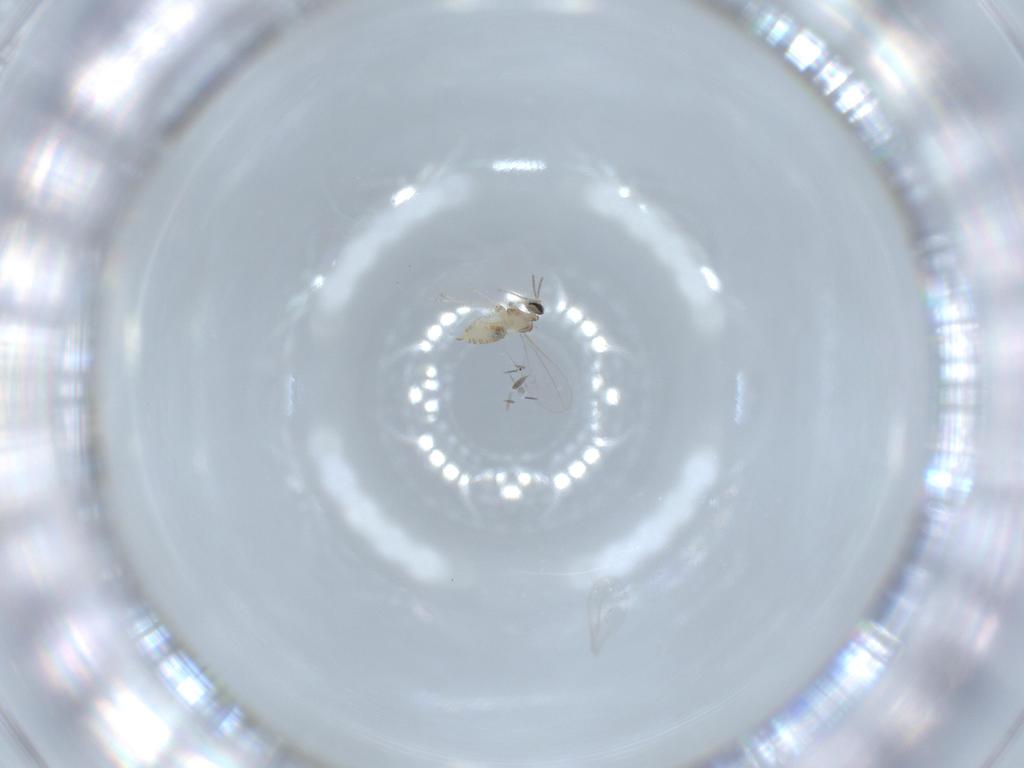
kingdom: Animalia
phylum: Arthropoda
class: Insecta
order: Diptera
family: Cecidomyiidae
